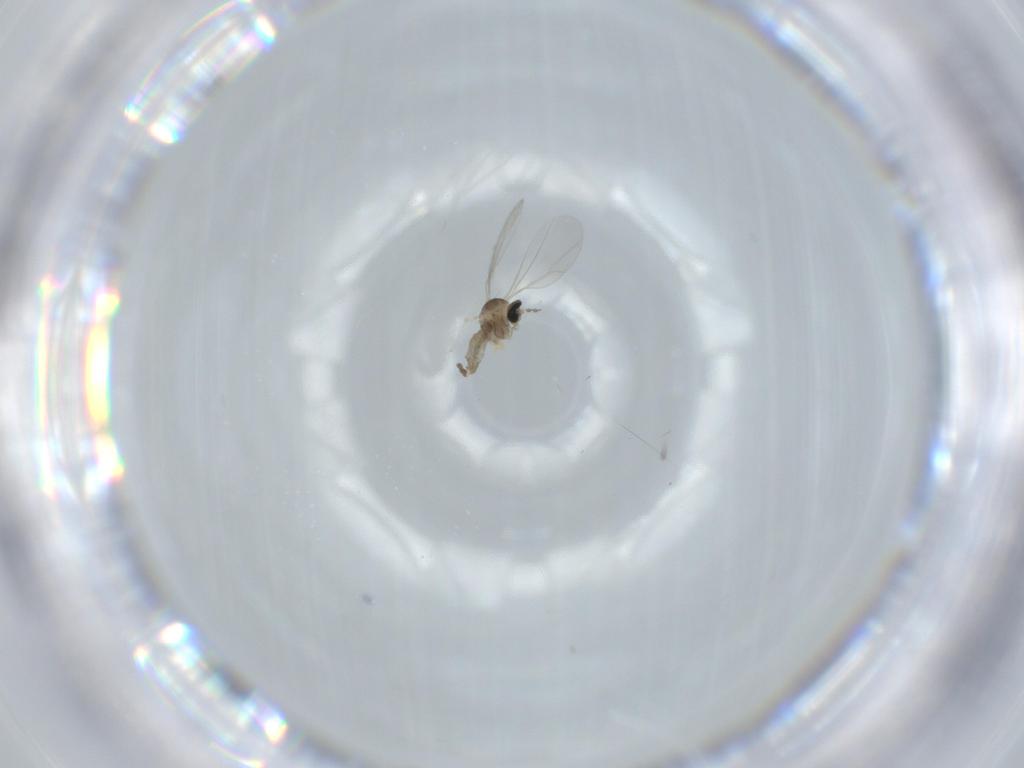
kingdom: Animalia
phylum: Arthropoda
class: Insecta
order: Diptera
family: Cecidomyiidae
